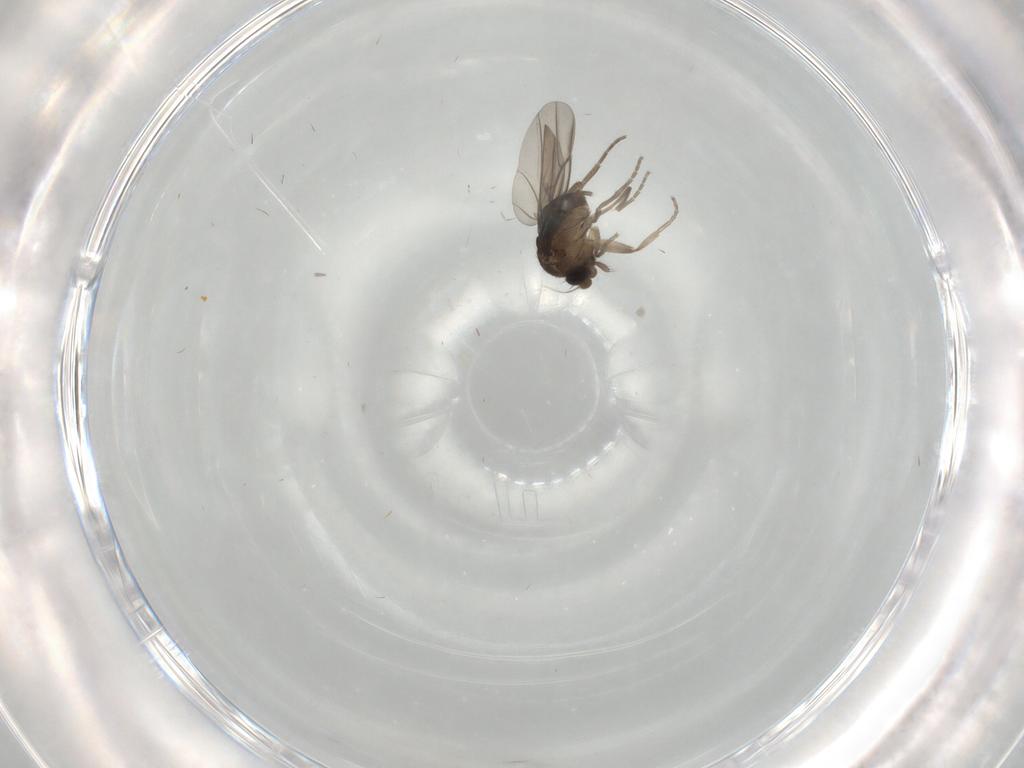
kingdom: Animalia
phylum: Arthropoda
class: Insecta
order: Diptera
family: Phoridae
